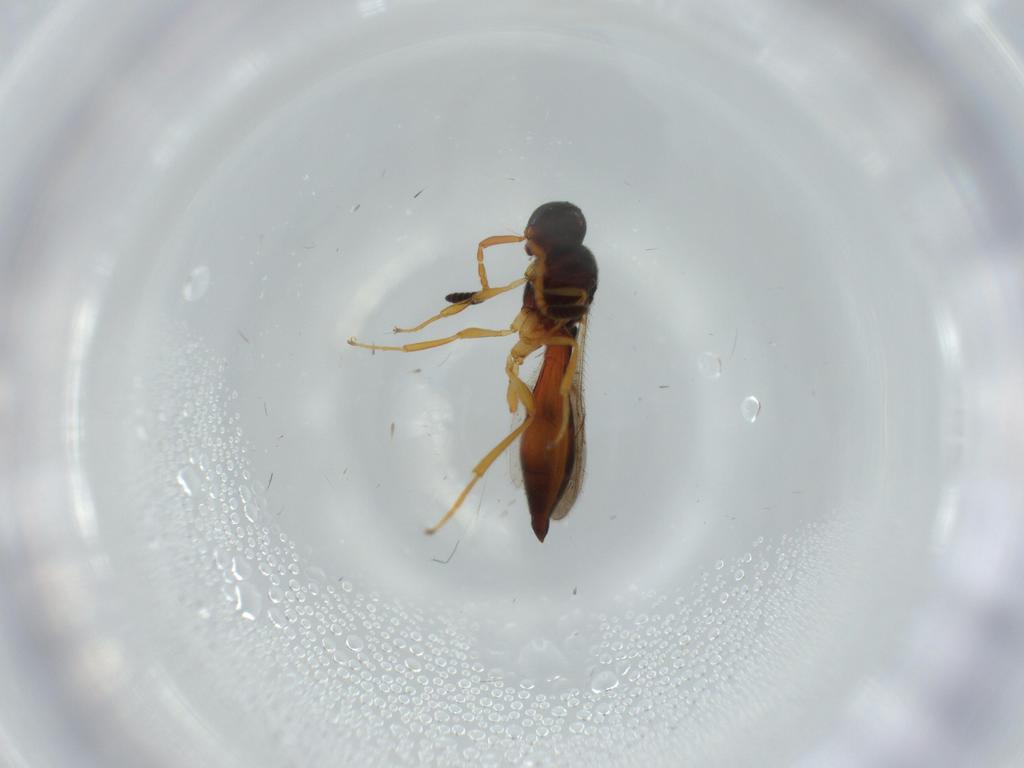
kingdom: Animalia
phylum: Arthropoda
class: Insecta
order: Hymenoptera
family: Scelionidae
